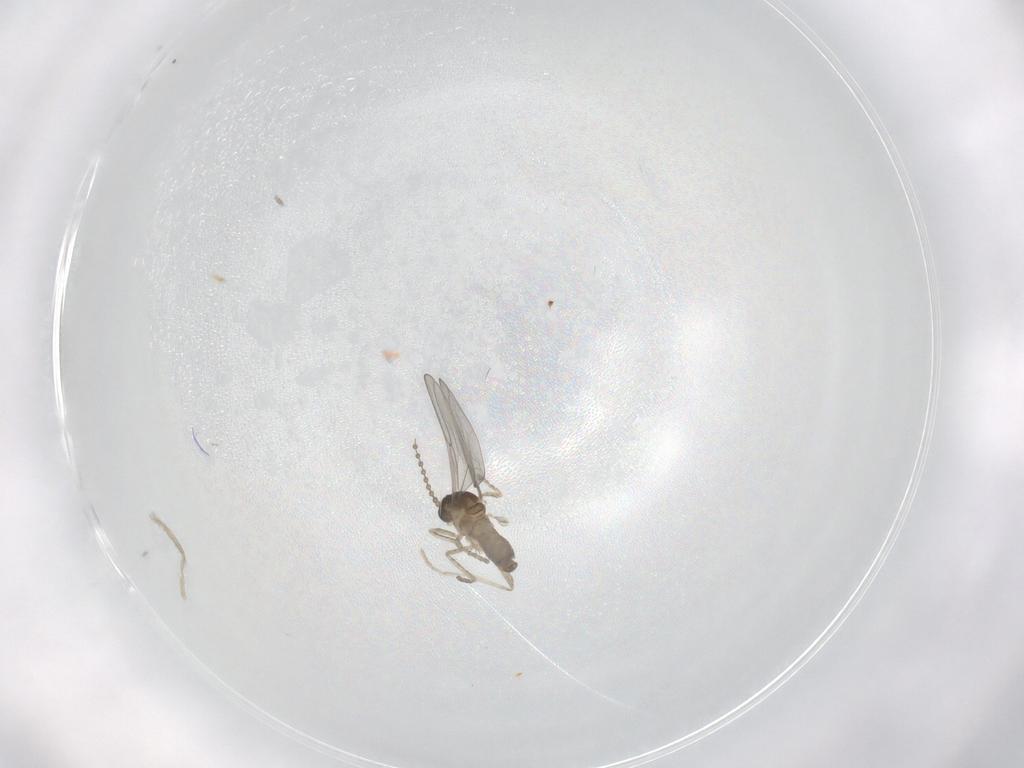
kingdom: Animalia
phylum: Arthropoda
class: Insecta
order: Diptera
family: Cecidomyiidae
